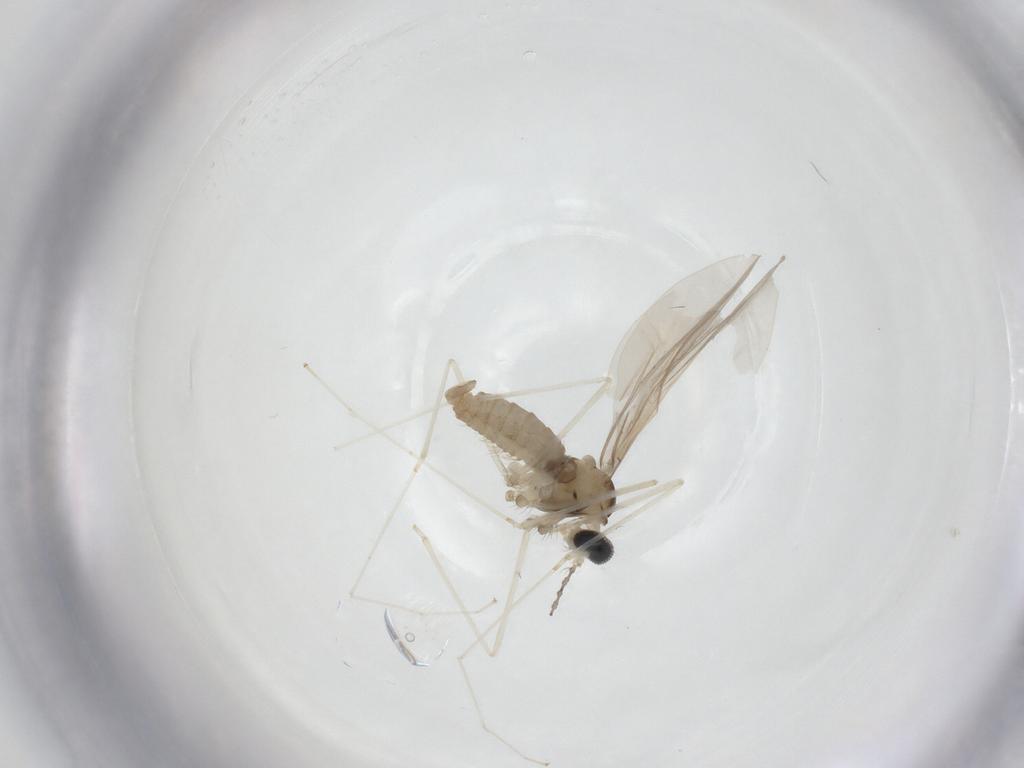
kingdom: Animalia
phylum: Arthropoda
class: Insecta
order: Diptera
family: Cecidomyiidae
